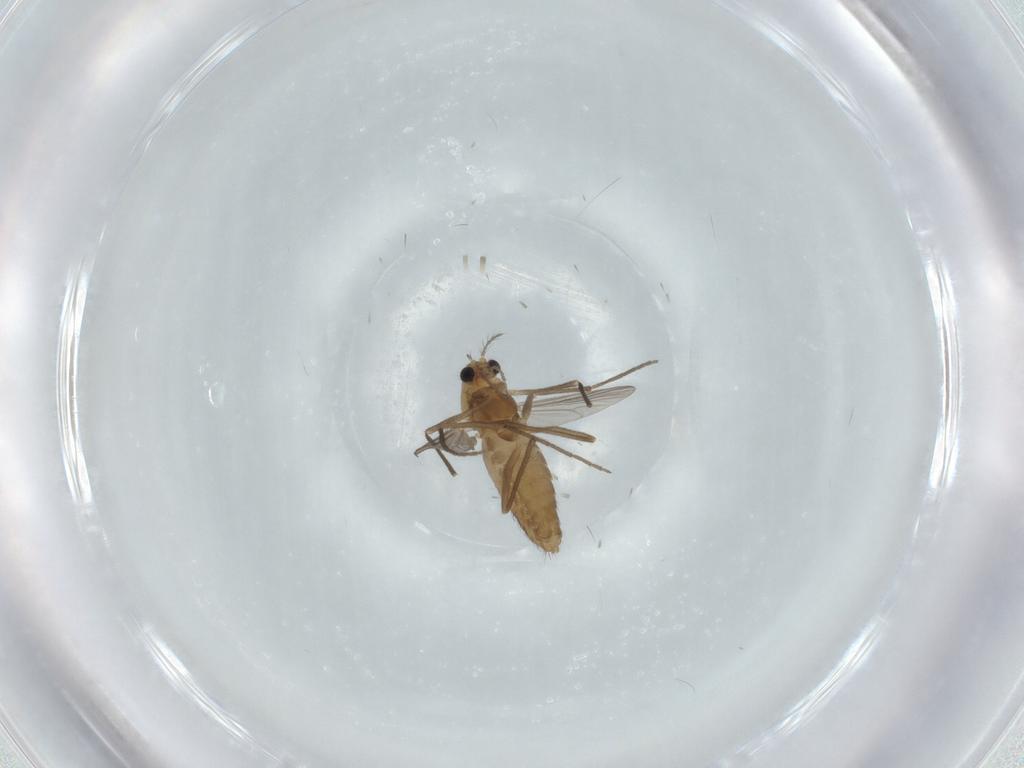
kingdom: Animalia
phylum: Arthropoda
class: Insecta
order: Diptera
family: Chironomidae
